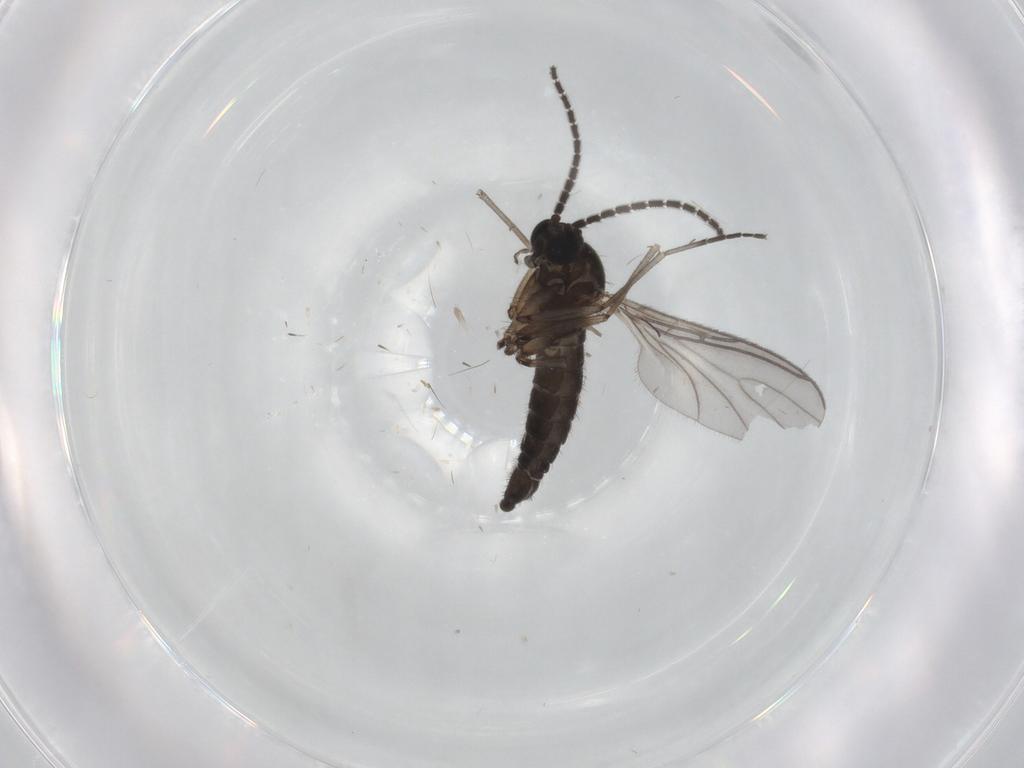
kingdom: Animalia
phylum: Arthropoda
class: Insecta
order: Diptera
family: Sciaridae
